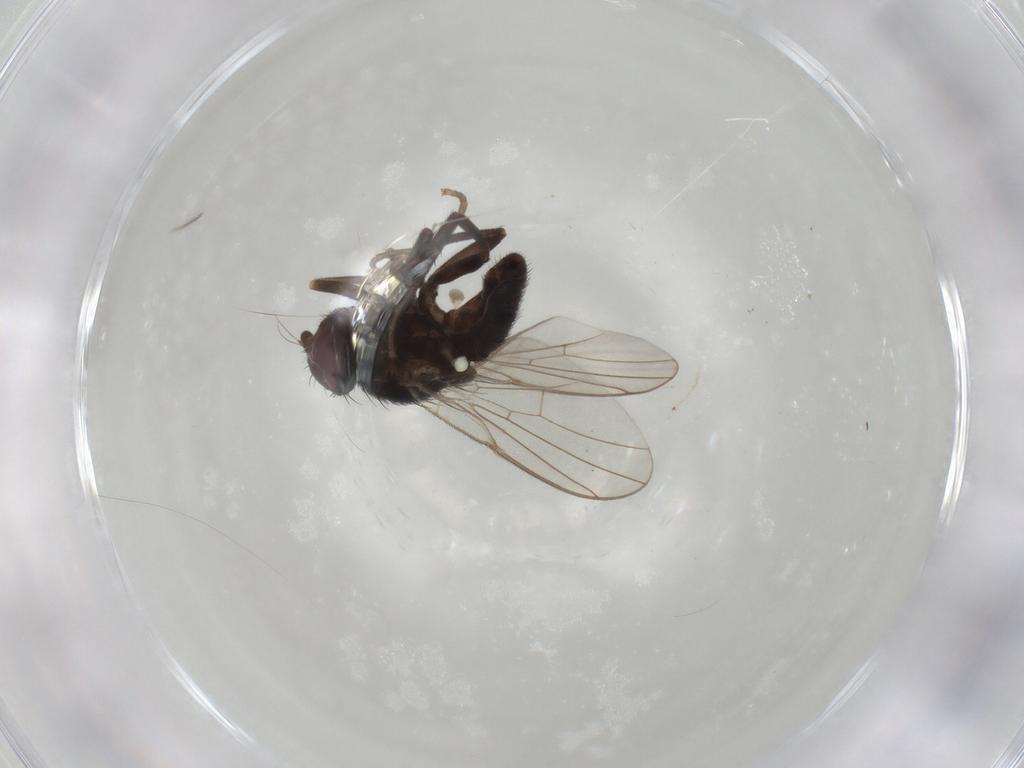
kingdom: Animalia
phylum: Arthropoda
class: Insecta
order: Diptera
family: Agromyzidae
